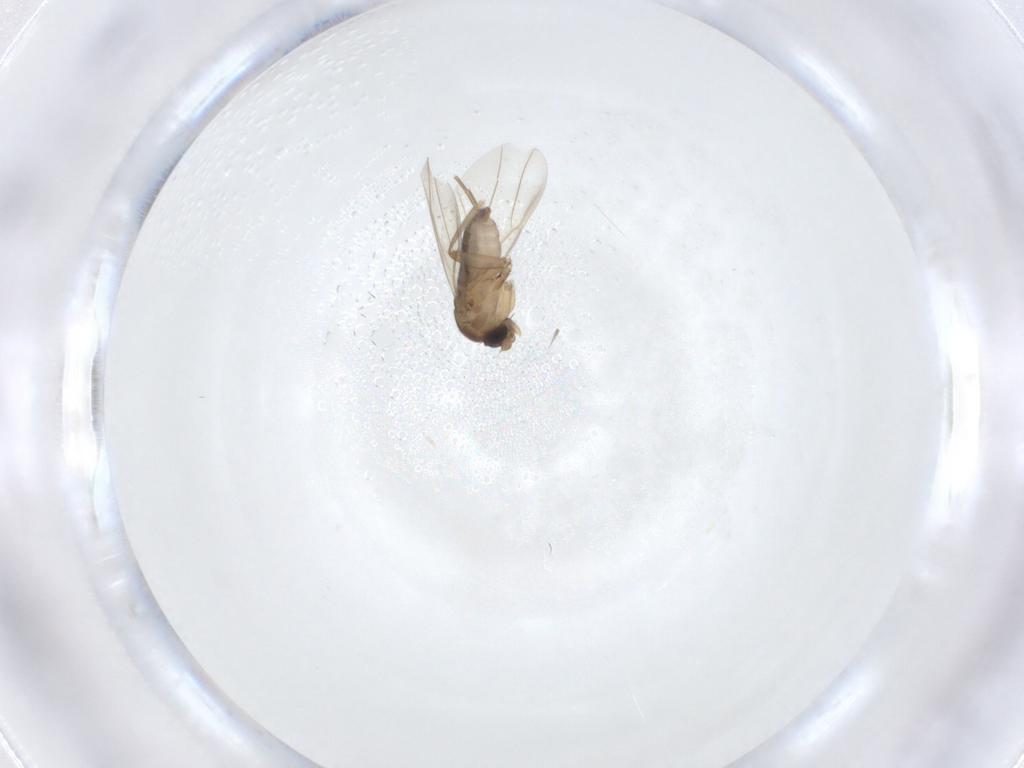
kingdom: Animalia
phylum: Arthropoda
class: Insecta
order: Diptera
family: Phoridae
